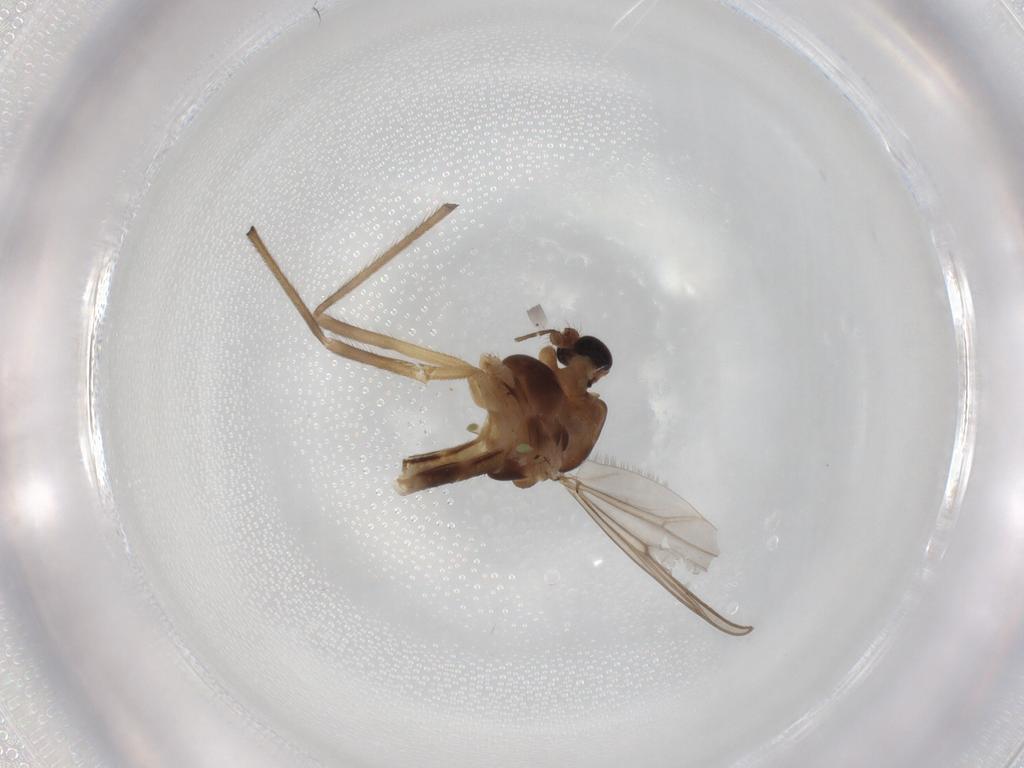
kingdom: Animalia
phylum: Arthropoda
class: Insecta
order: Diptera
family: Chironomidae
